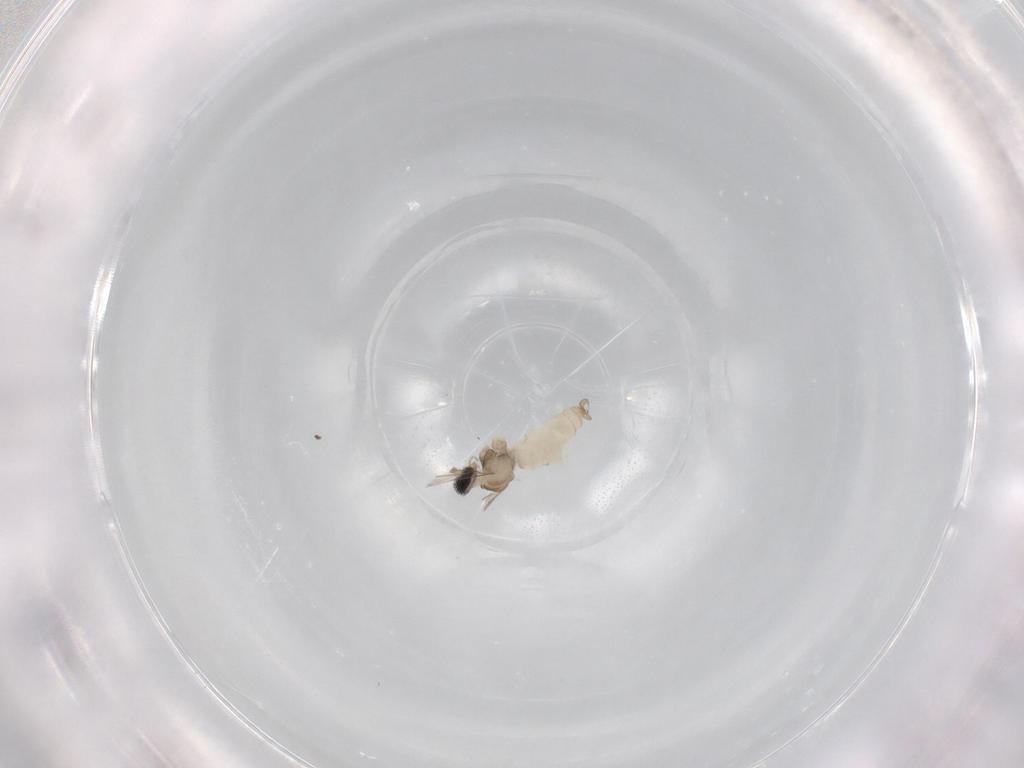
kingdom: Animalia
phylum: Arthropoda
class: Insecta
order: Diptera
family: Cecidomyiidae
